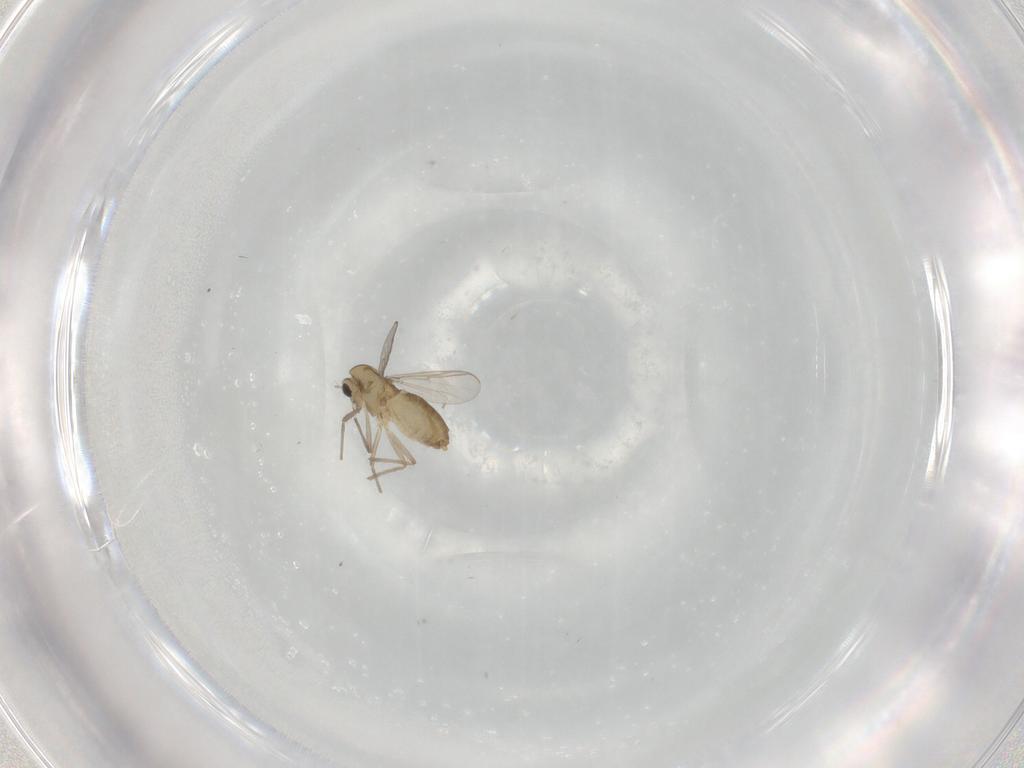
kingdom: Animalia
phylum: Arthropoda
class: Insecta
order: Diptera
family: Chironomidae
